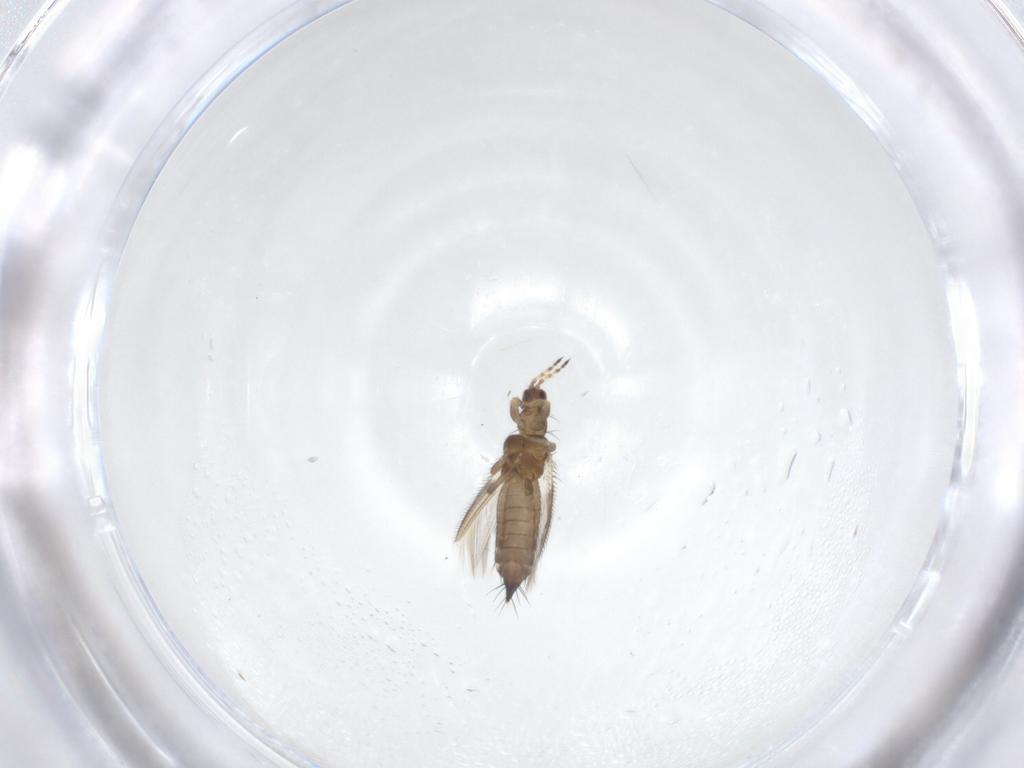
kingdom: Animalia
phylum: Arthropoda
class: Insecta
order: Thysanoptera
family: Thripidae
